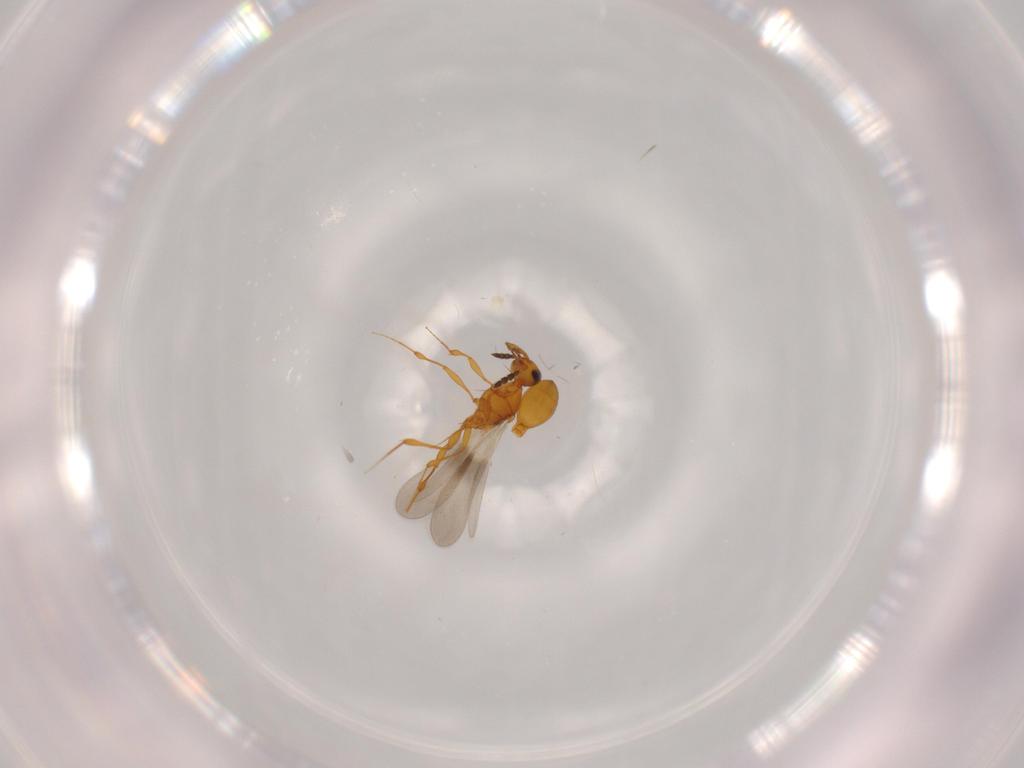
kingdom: Animalia
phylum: Arthropoda
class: Insecta
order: Hymenoptera
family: Platygastridae
